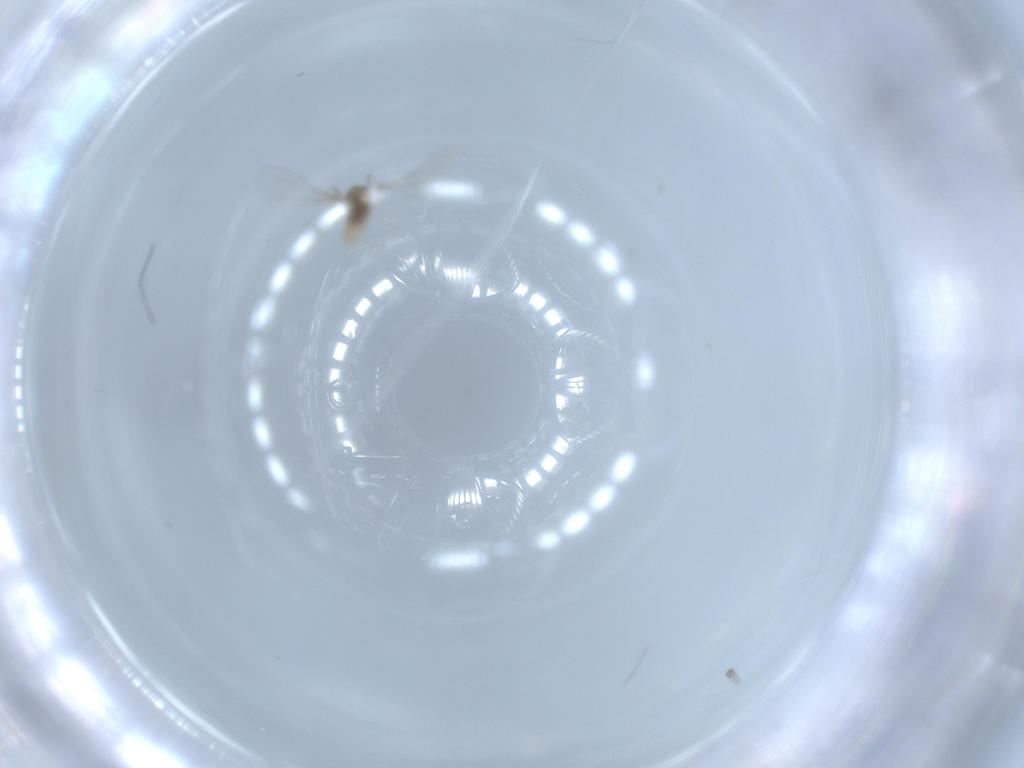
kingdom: Animalia
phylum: Arthropoda
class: Insecta
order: Diptera
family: Cecidomyiidae
